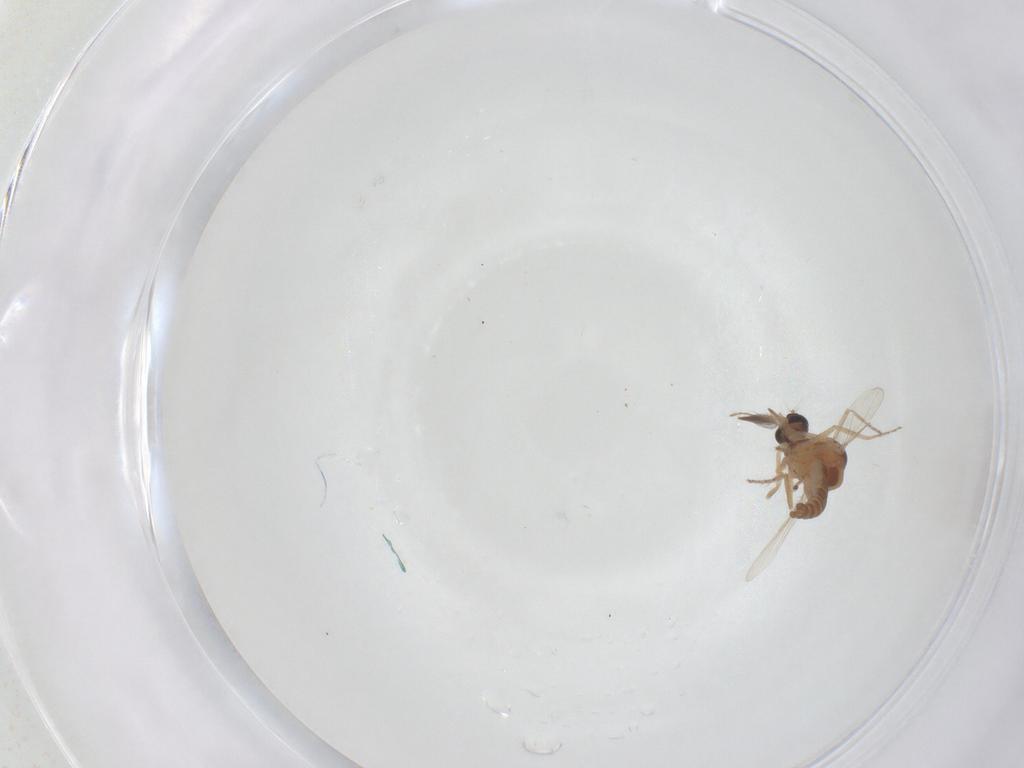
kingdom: Animalia
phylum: Arthropoda
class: Insecta
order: Diptera
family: Ceratopogonidae
